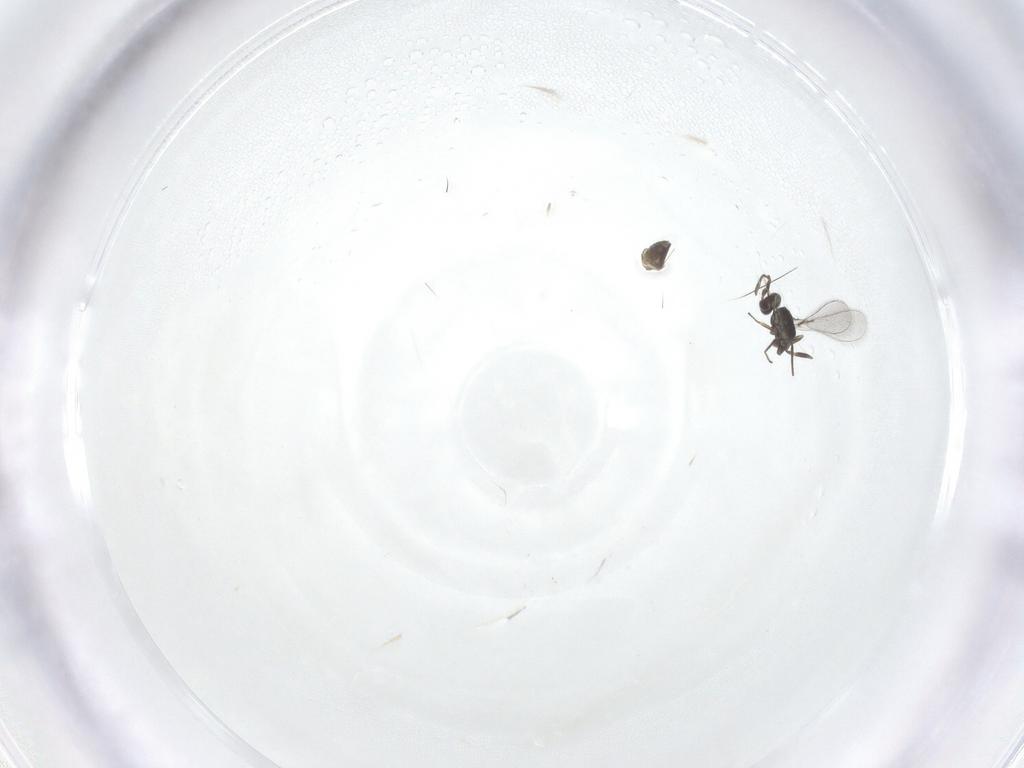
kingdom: Animalia
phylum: Arthropoda
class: Insecta
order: Hymenoptera
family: Mymaridae
